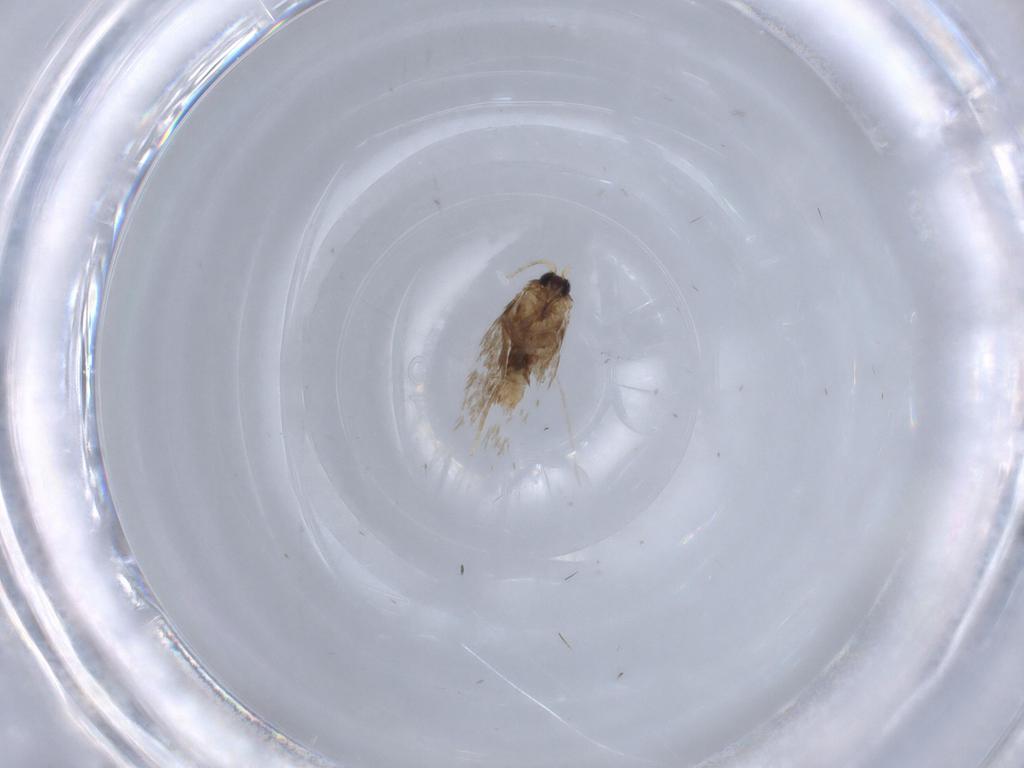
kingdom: Animalia
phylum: Arthropoda
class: Insecta
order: Lepidoptera
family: Nepticulidae
